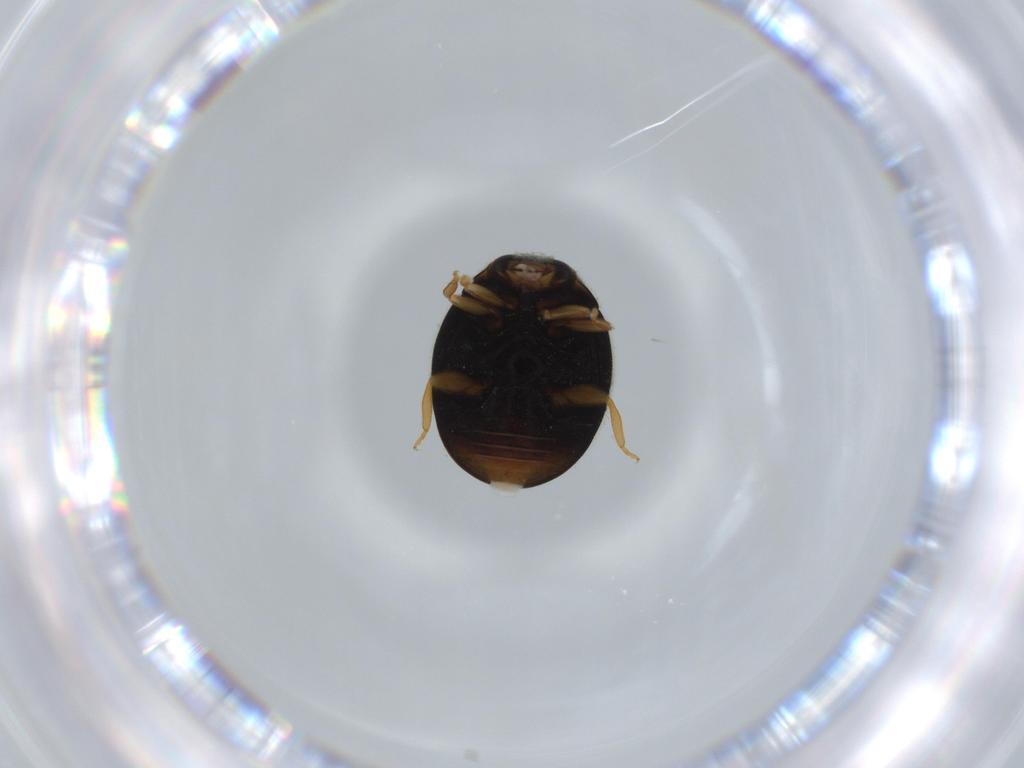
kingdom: Animalia
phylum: Arthropoda
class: Insecta
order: Coleoptera
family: Coccinellidae
